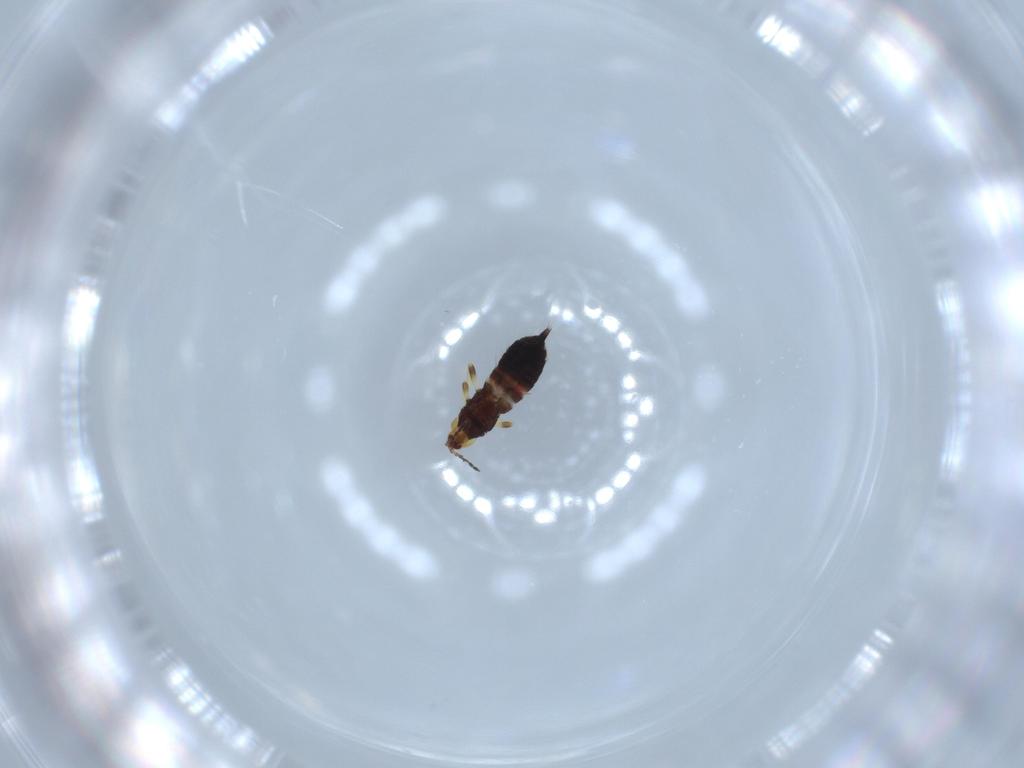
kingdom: Animalia
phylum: Arthropoda
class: Insecta
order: Thysanoptera
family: Phlaeothripidae
